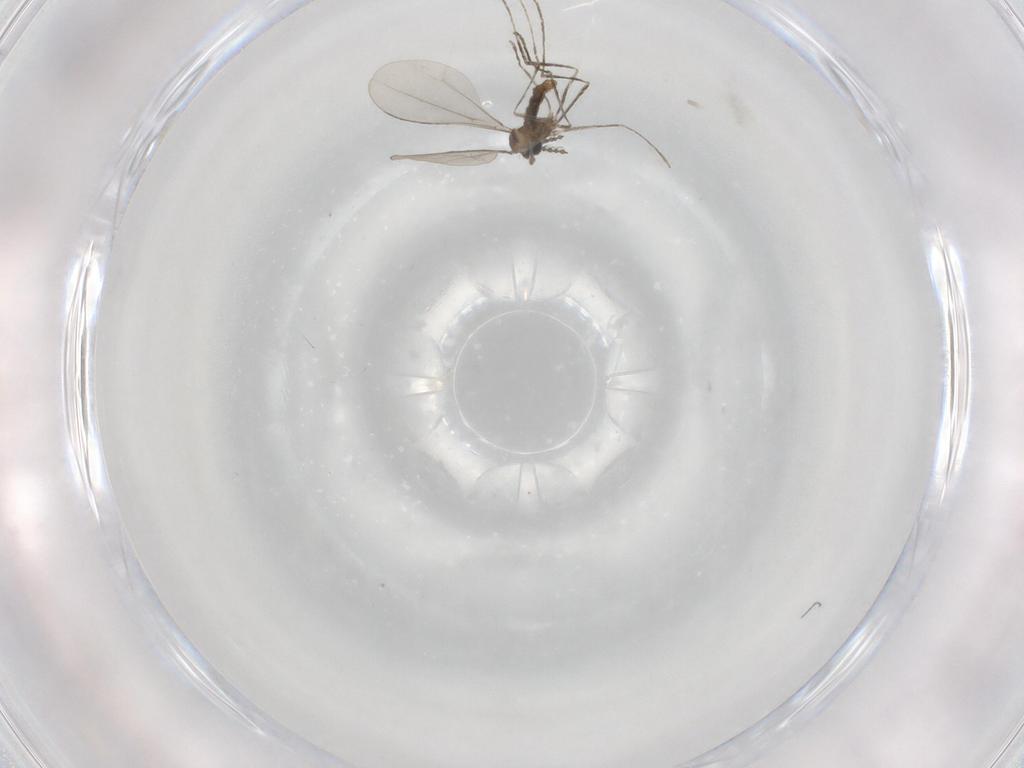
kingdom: Animalia
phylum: Arthropoda
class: Insecta
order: Diptera
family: Cecidomyiidae
